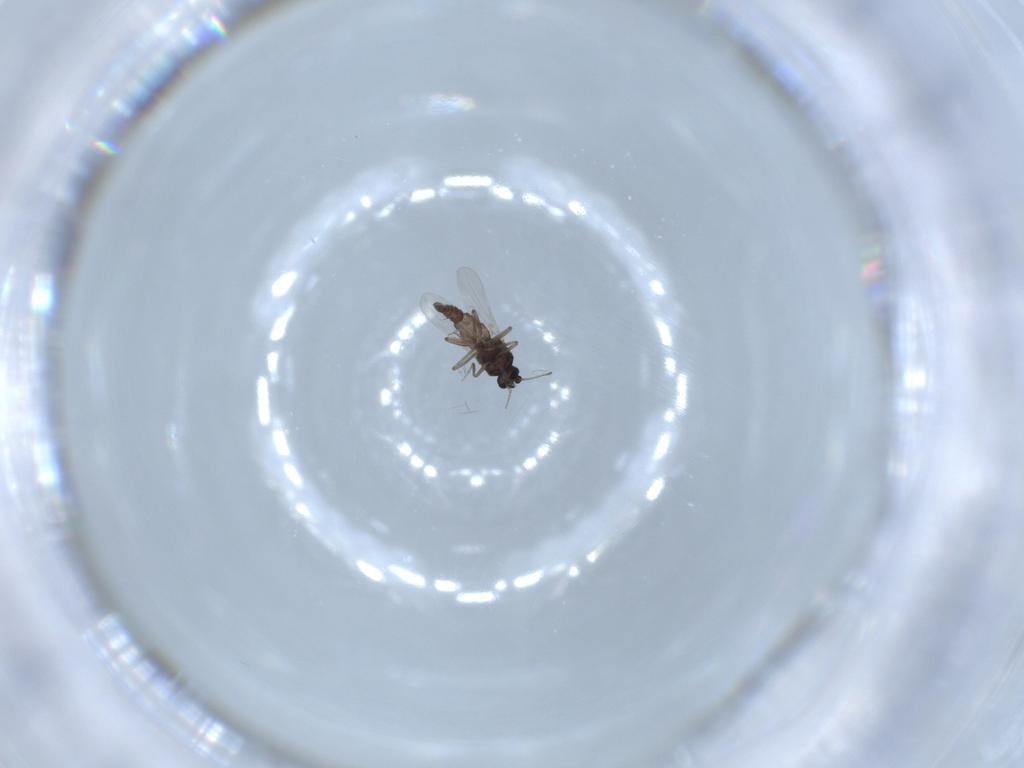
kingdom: Animalia
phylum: Arthropoda
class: Insecta
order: Diptera
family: Ceratopogonidae
